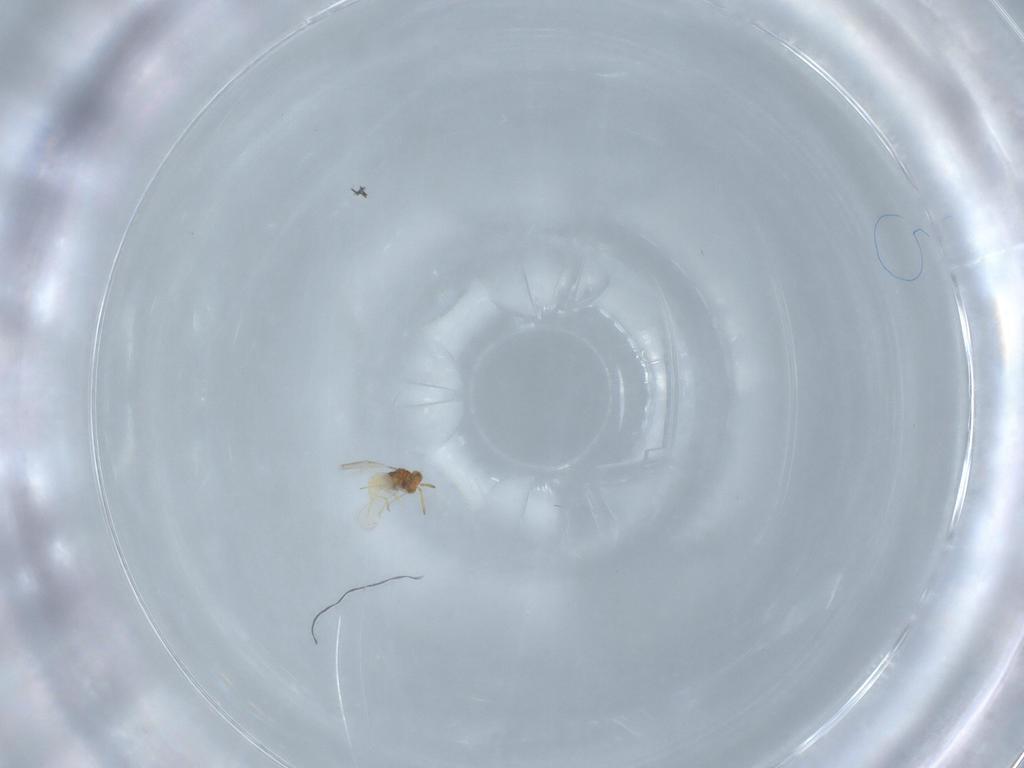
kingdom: Animalia
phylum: Arthropoda
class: Insecta
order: Hymenoptera
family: Aphelinidae
